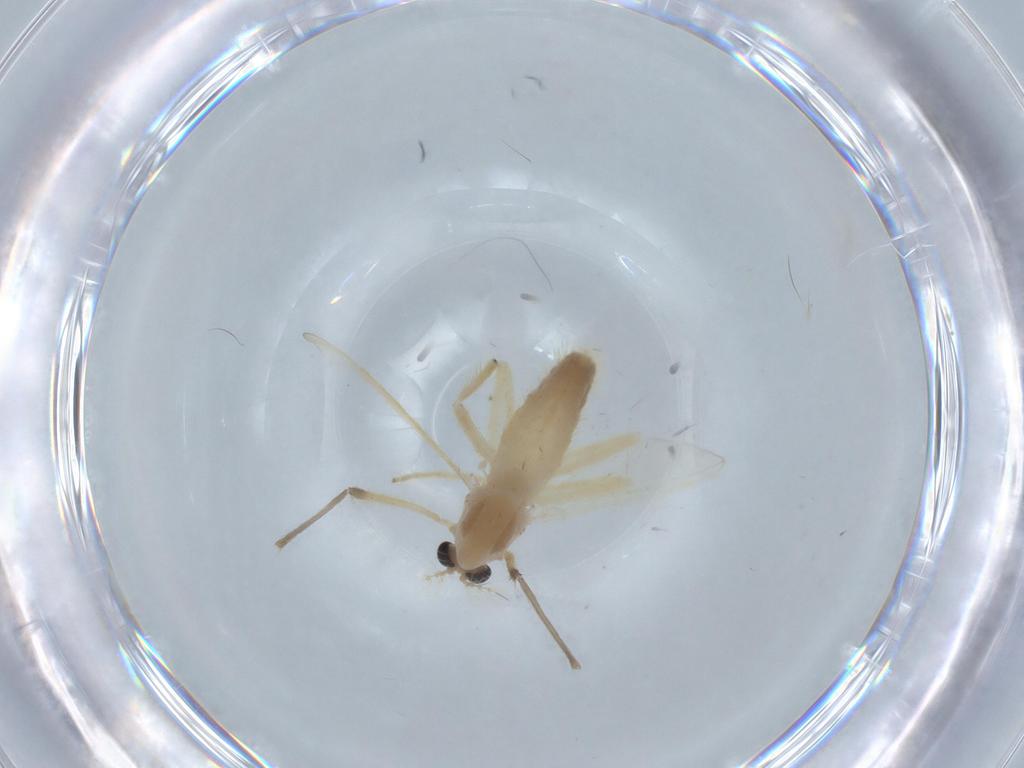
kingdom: Animalia
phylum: Arthropoda
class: Insecta
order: Diptera
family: Chironomidae
